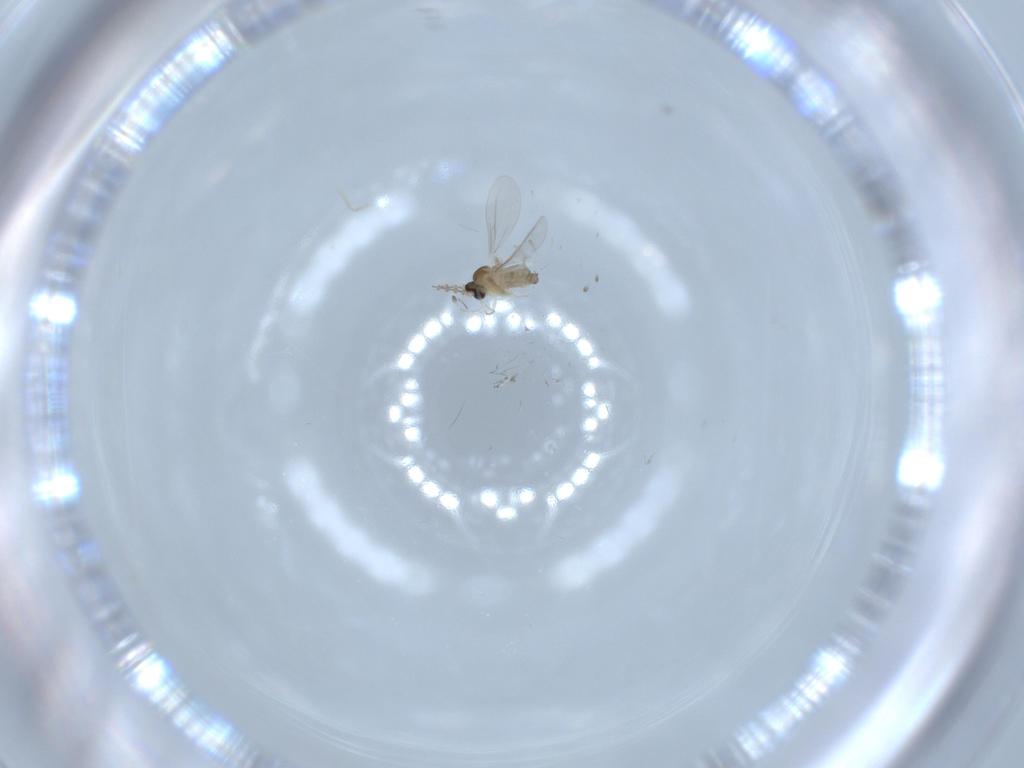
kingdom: Animalia
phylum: Arthropoda
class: Insecta
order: Diptera
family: Cecidomyiidae
